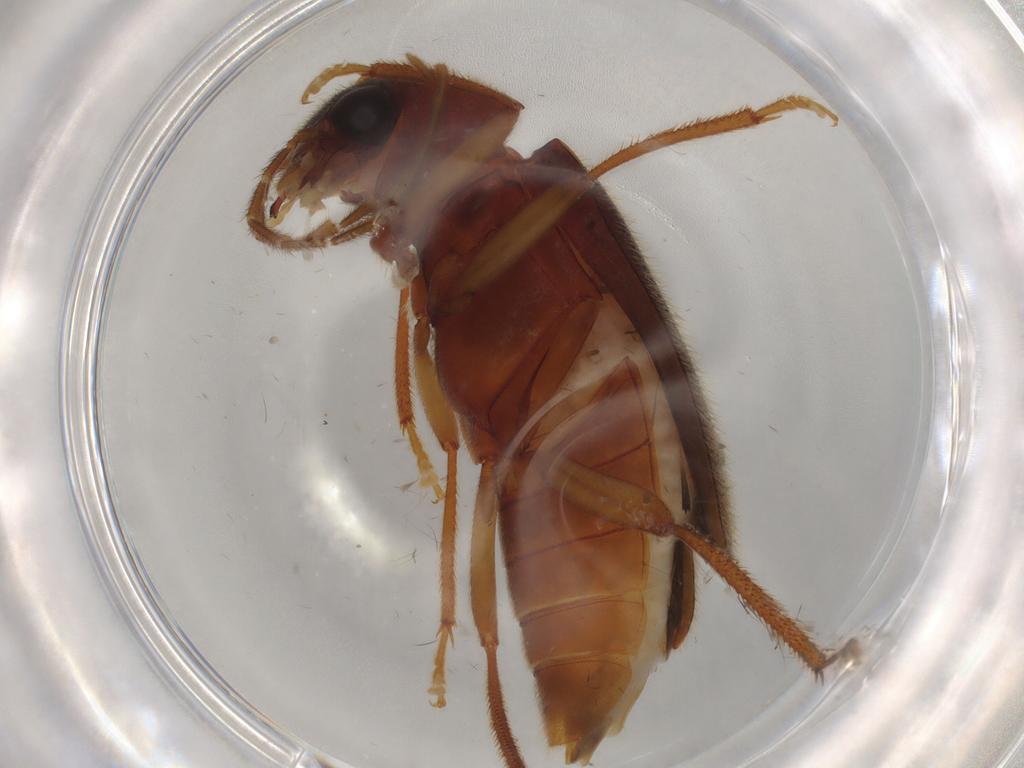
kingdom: Animalia
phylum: Arthropoda
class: Insecta
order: Coleoptera
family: Ptilodactylidae
